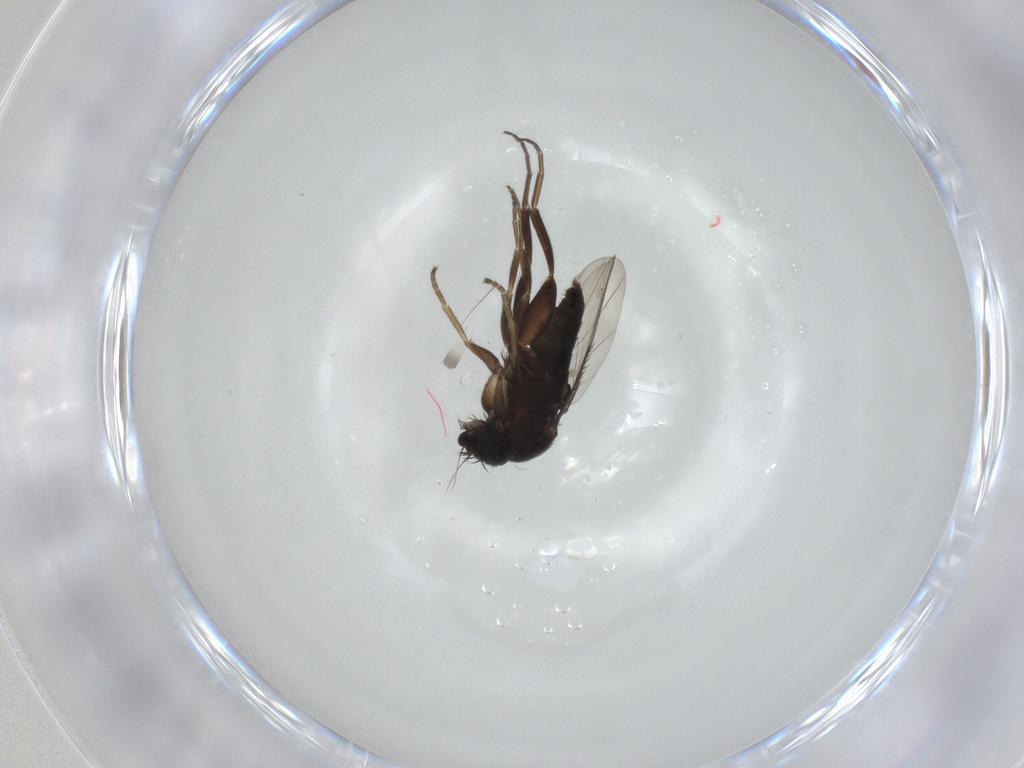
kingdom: Animalia
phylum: Arthropoda
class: Insecta
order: Diptera
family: Phoridae
